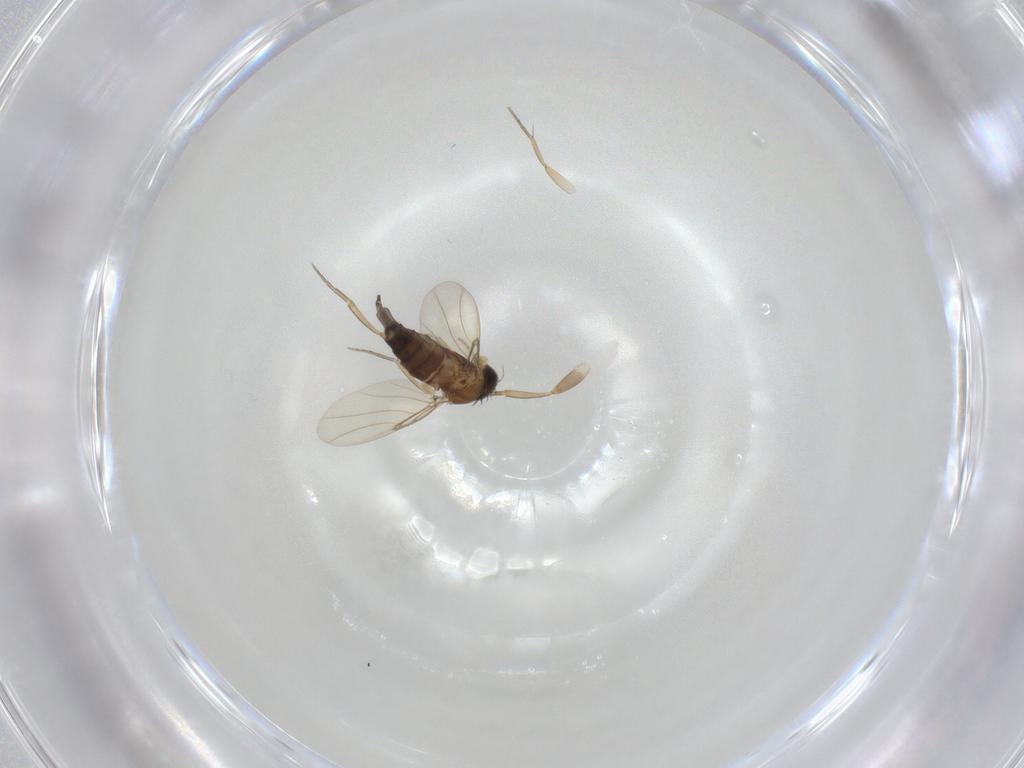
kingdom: Animalia
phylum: Arthropoda
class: Insecta
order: Diptera
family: Phoridae
